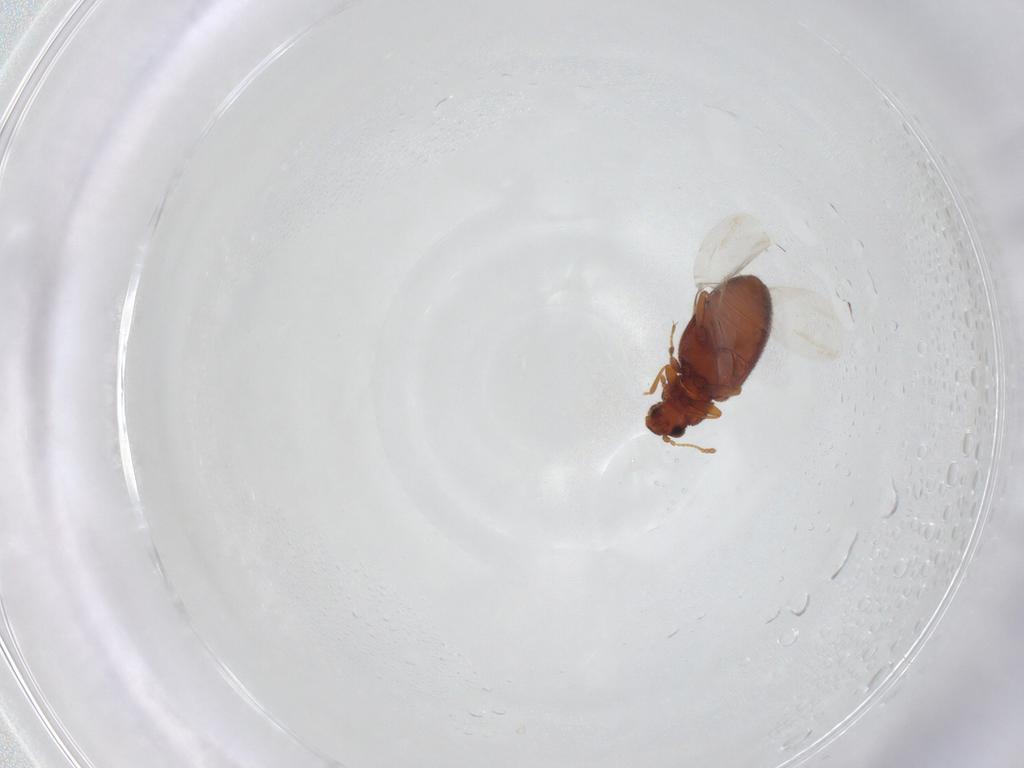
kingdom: Animalia
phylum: Arthropoda
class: Insecta
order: Coleoptera
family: Latridiidae
